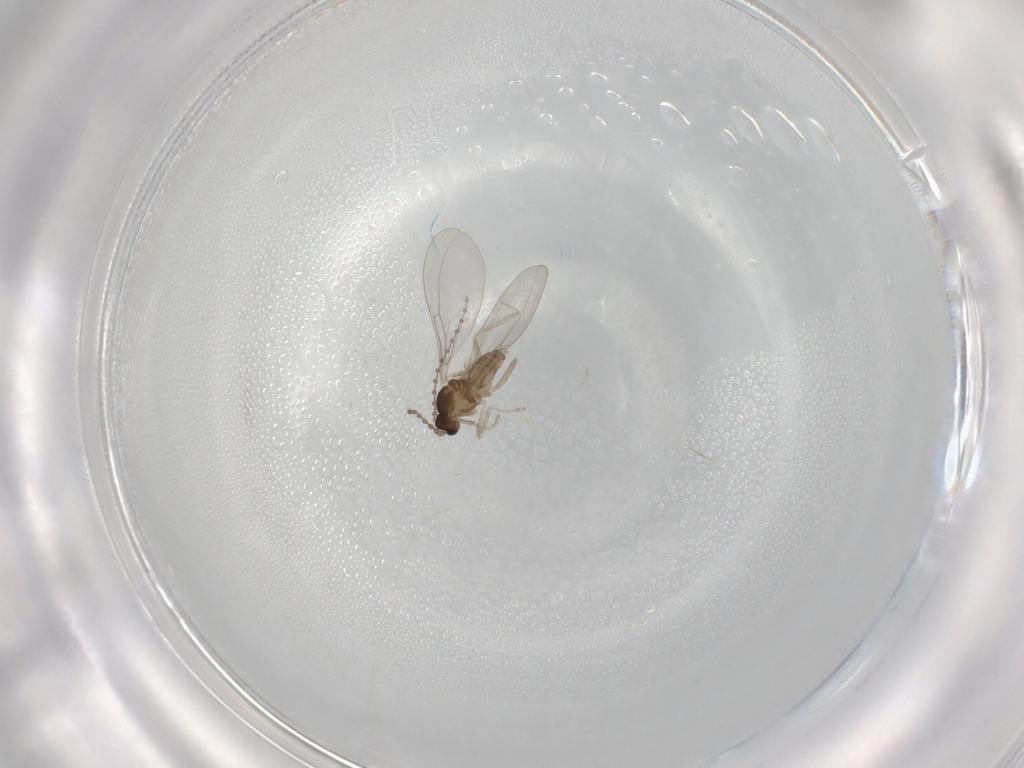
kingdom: Animalia
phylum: Arthropoda
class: Insecta
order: Diptera
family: Cecidomyiidae
